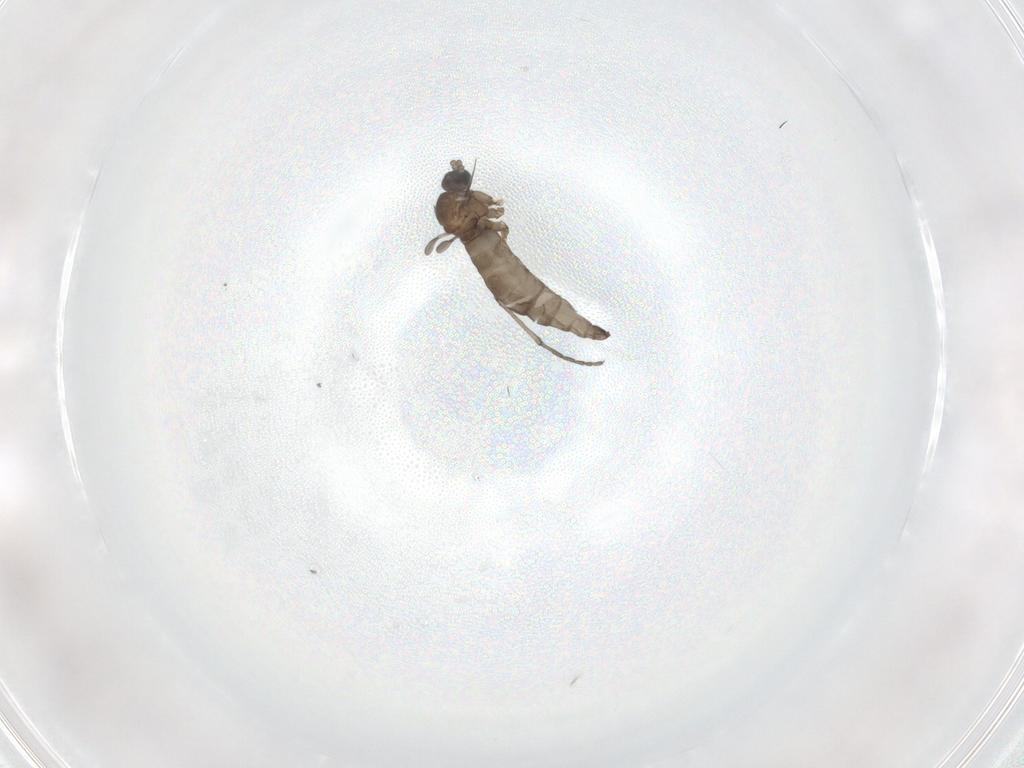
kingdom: Animalia
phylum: Arthropoda
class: Insecta
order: Diptera
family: Sciaridae
